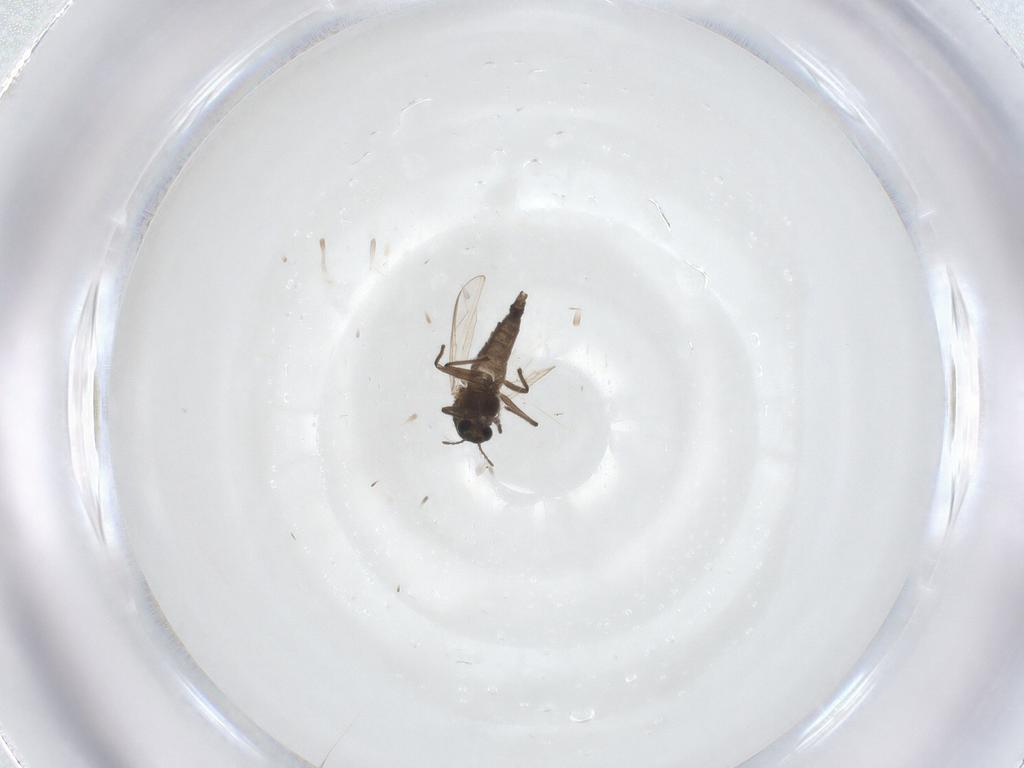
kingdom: Animalia
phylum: Arthropoda
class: Insecta
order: Diptera
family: Chironomidae
